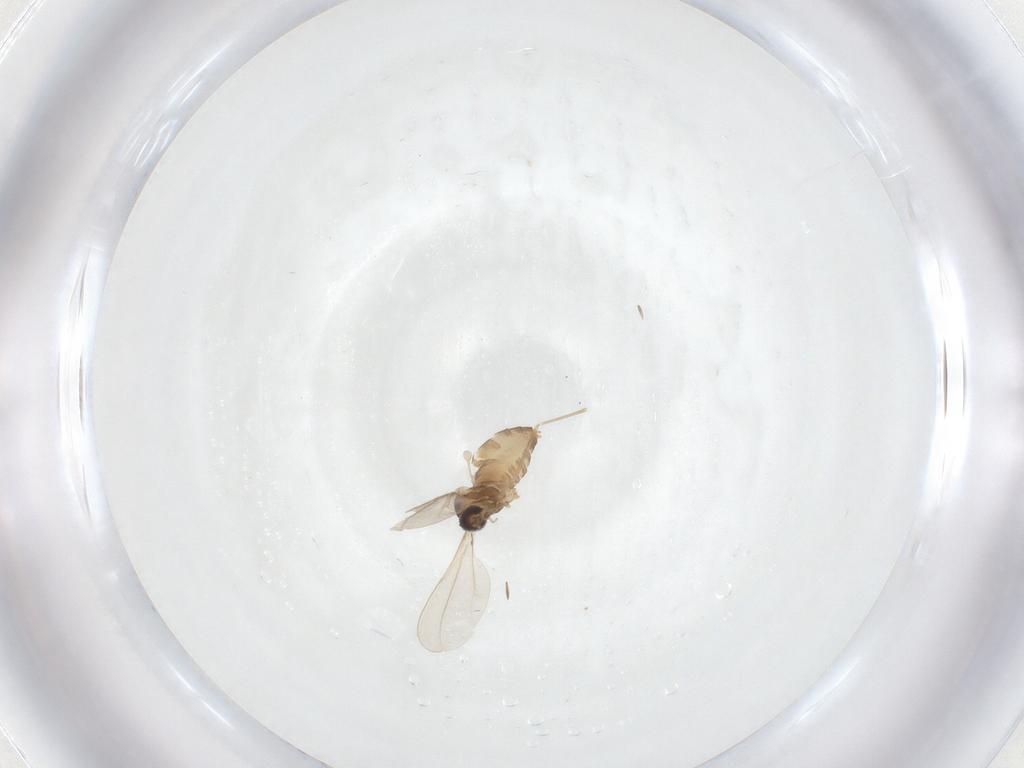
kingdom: Animalia
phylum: Arthropoda
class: Insecta
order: Diptera
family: Cecidomyiidae
